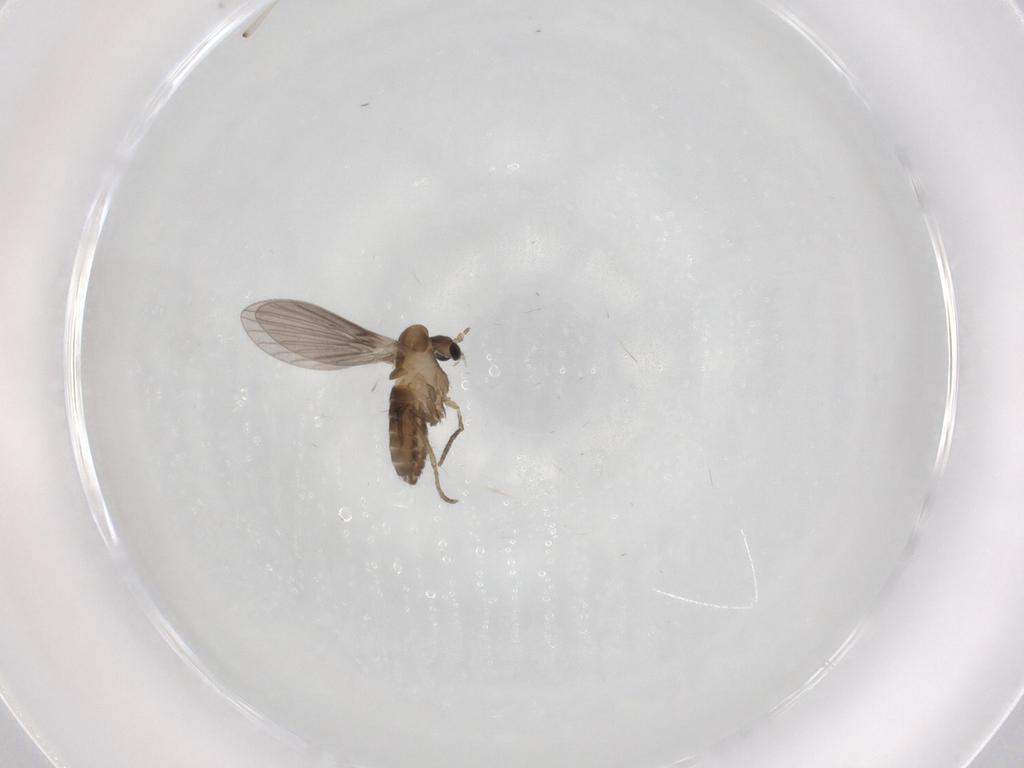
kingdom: Animalia
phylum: Arthropoda
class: Insecta
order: Diptera
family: Psychodidae
